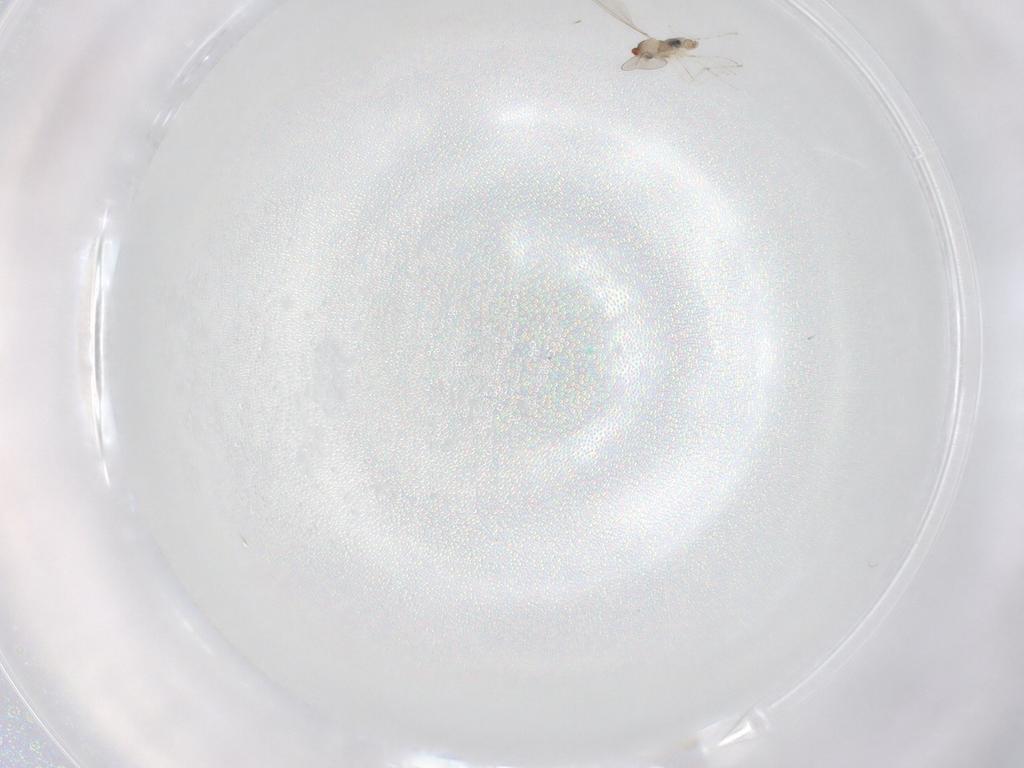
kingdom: Animalia
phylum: Arthropoda
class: Insecta
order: Diptera
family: Cecidomyiidae
